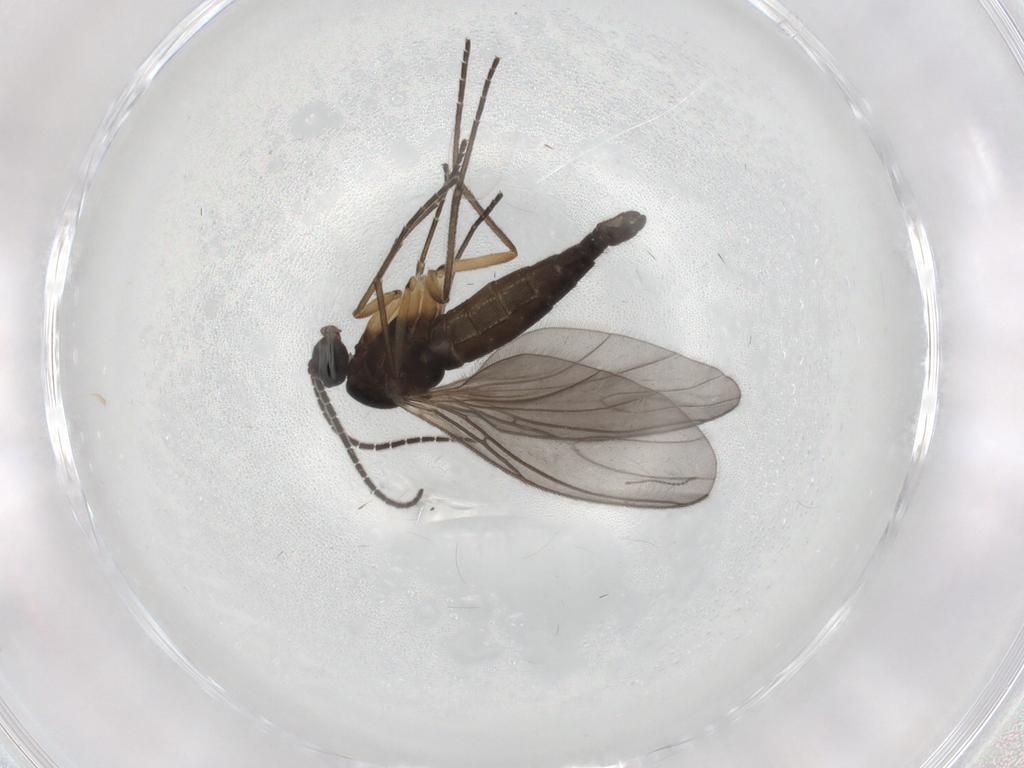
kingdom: Animalia
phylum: Arthropoda
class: Insecta
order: Diptera
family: Sciaridae
